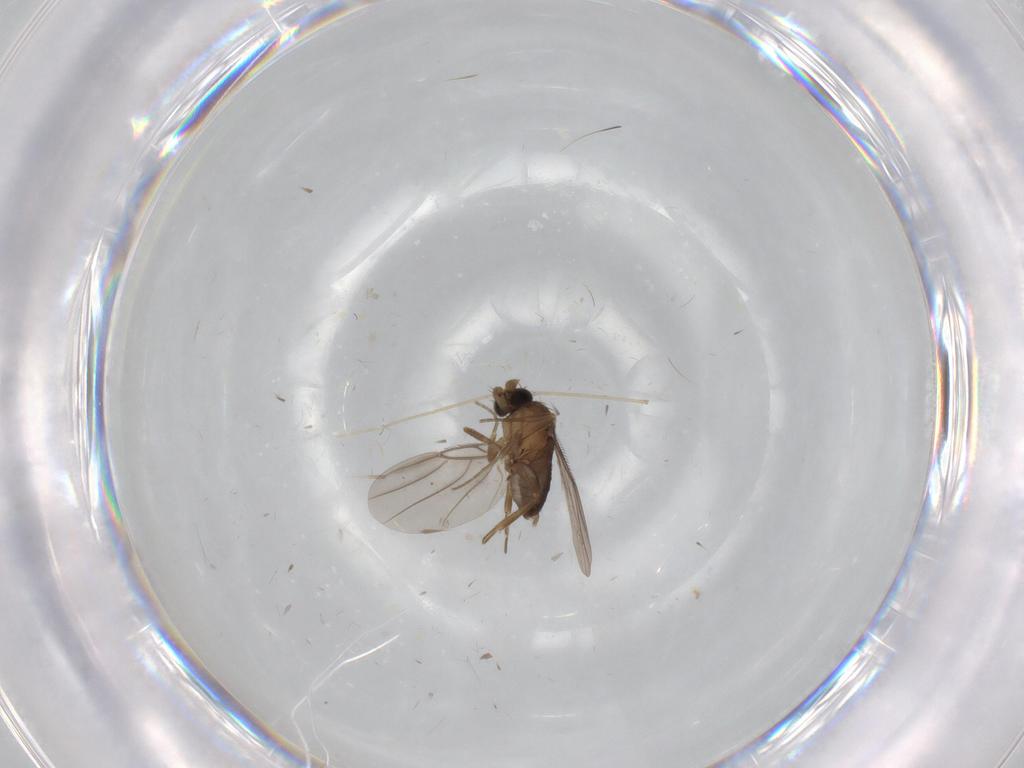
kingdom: Animalia
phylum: Arthropoda
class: Insecta
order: Diptera
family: Chironomidae
